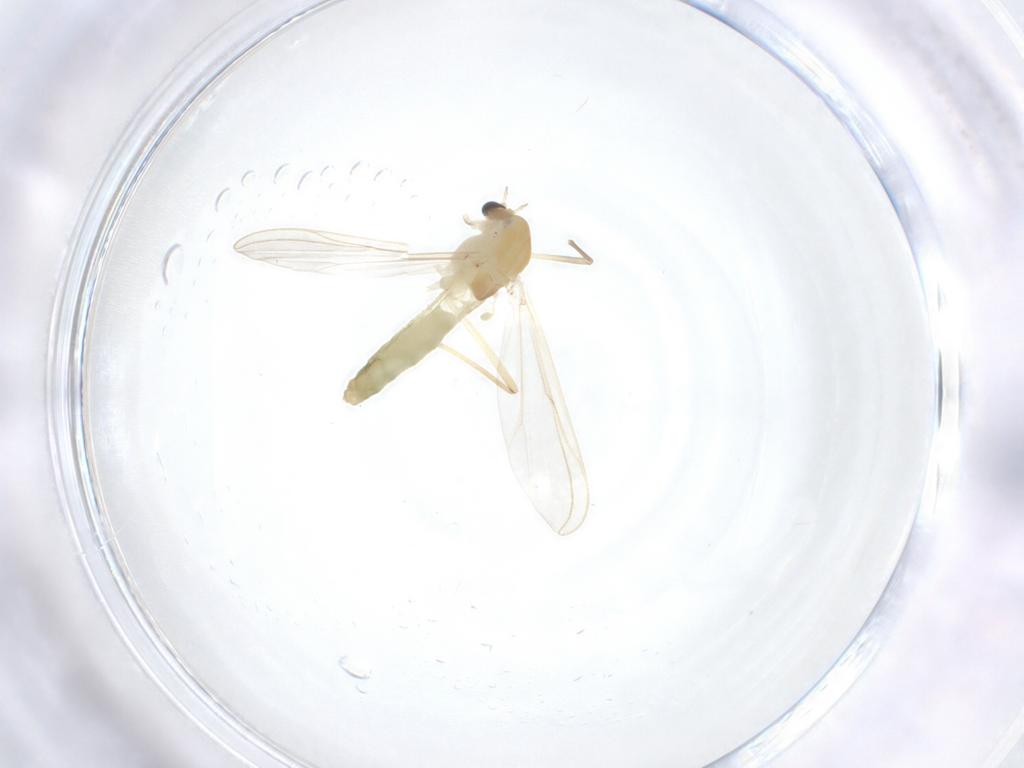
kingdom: Animalia
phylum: Arthropoda
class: Insecta
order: Diptera
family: Chironomidae
